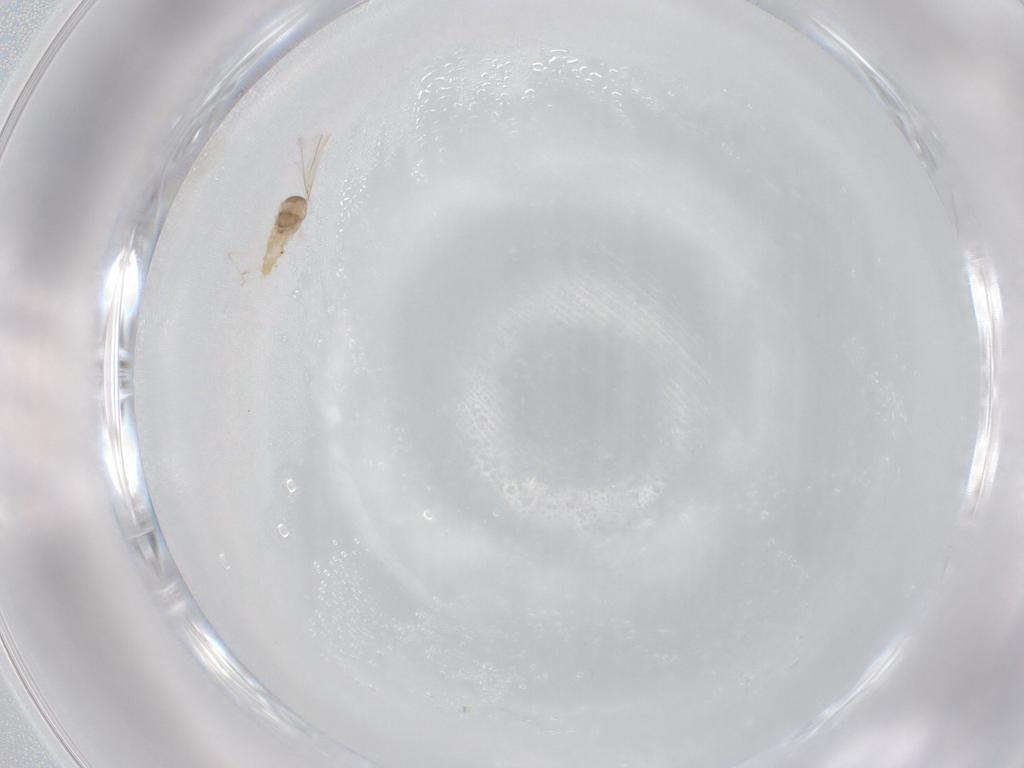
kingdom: Animalia
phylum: Arthropoda
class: Insecta
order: Diptera
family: Cecidomyiidae
